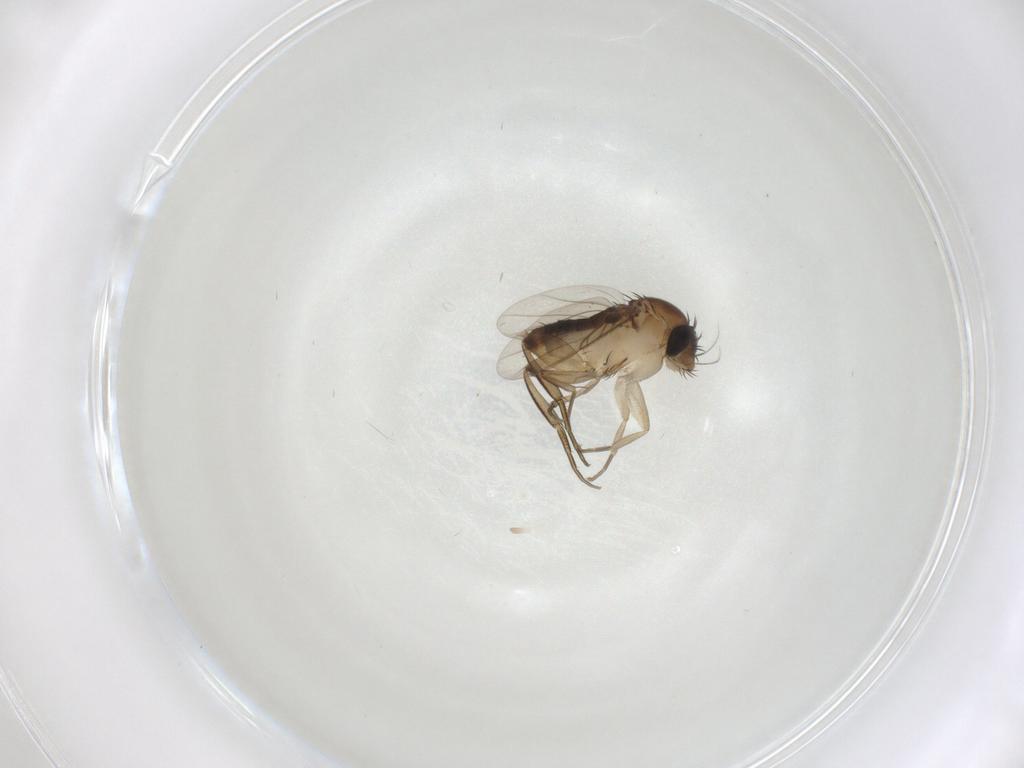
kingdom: Animalia
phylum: Arthropoda
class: Insecta
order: Diptera
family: Phoridae
